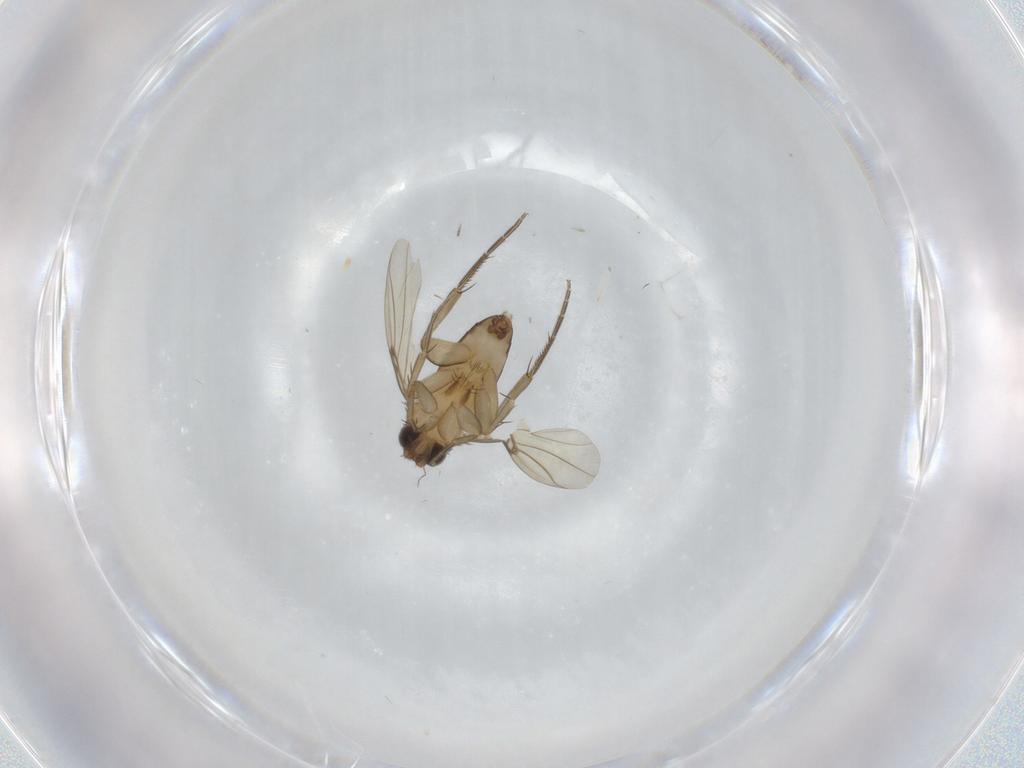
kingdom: Animalia
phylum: Arthropoda
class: Insecta
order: Diptera
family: Phoridae
